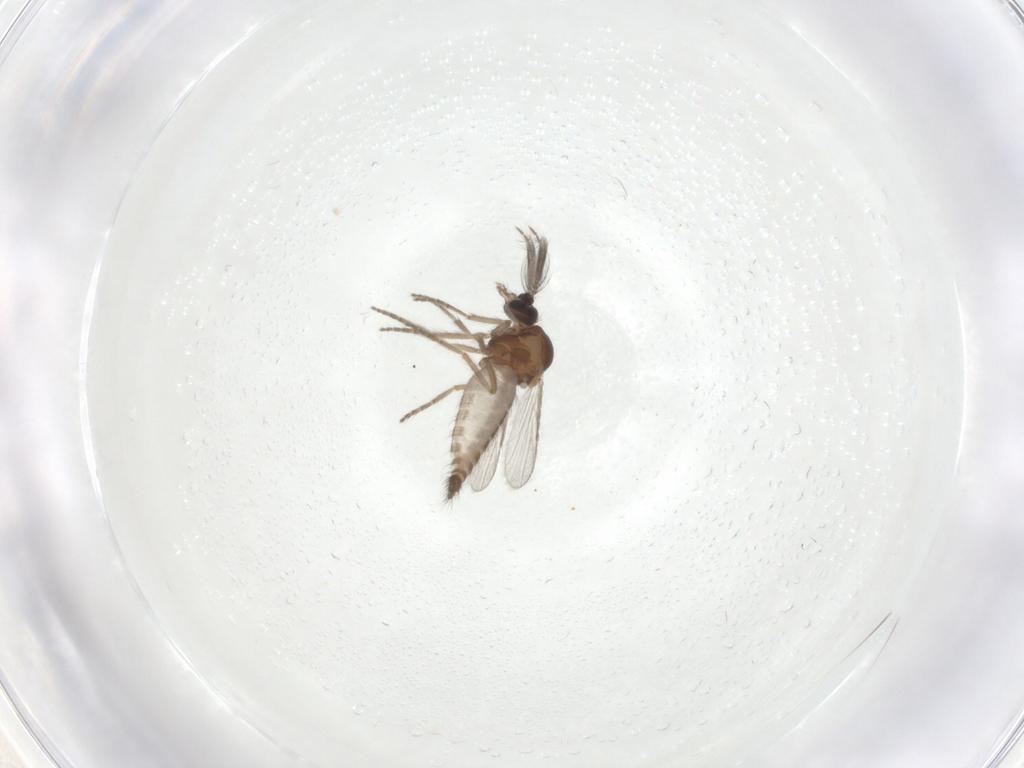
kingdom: Animalia
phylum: Arthropoda
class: Insecta
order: Diptera
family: Ceratopogonidae
